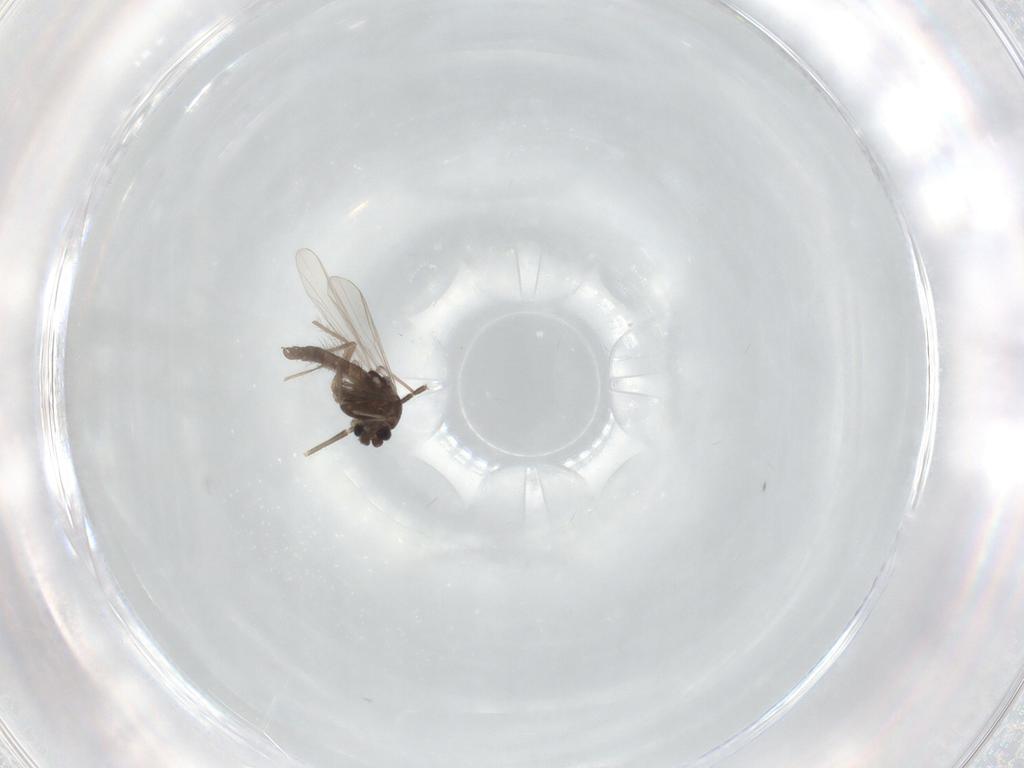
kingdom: Animalia
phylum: Arthropoda
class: Insecta
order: Diptera
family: Chironomidae
